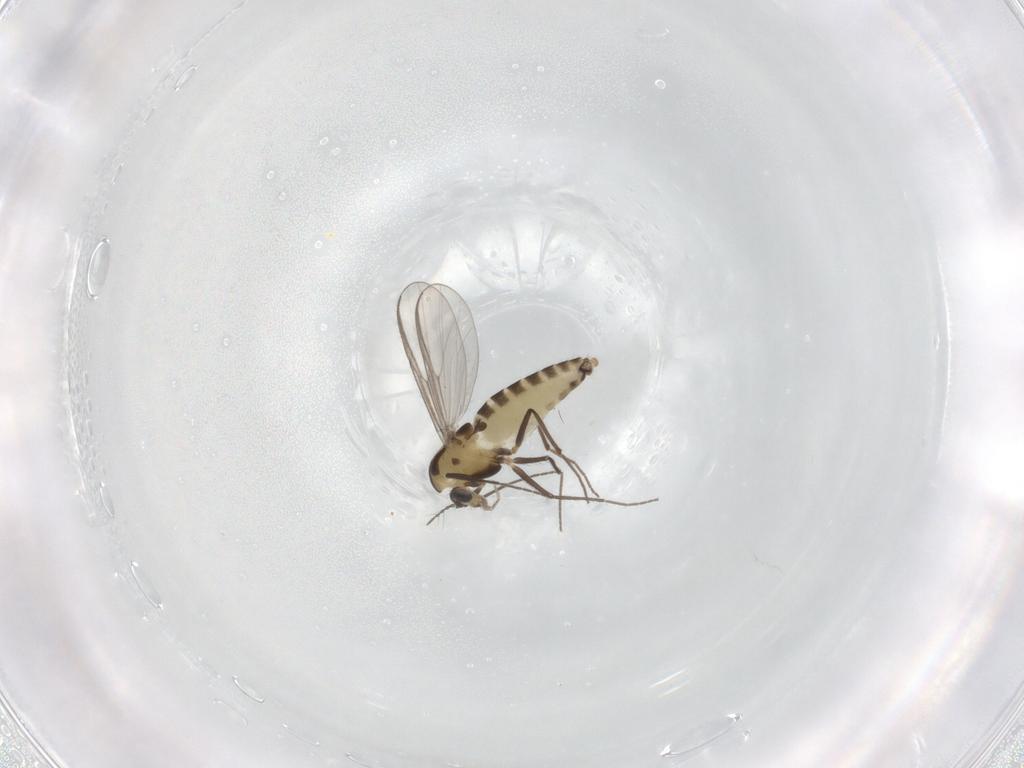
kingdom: Animalia
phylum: Arthropoda
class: Insecta
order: Diptera
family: Chironomidae
